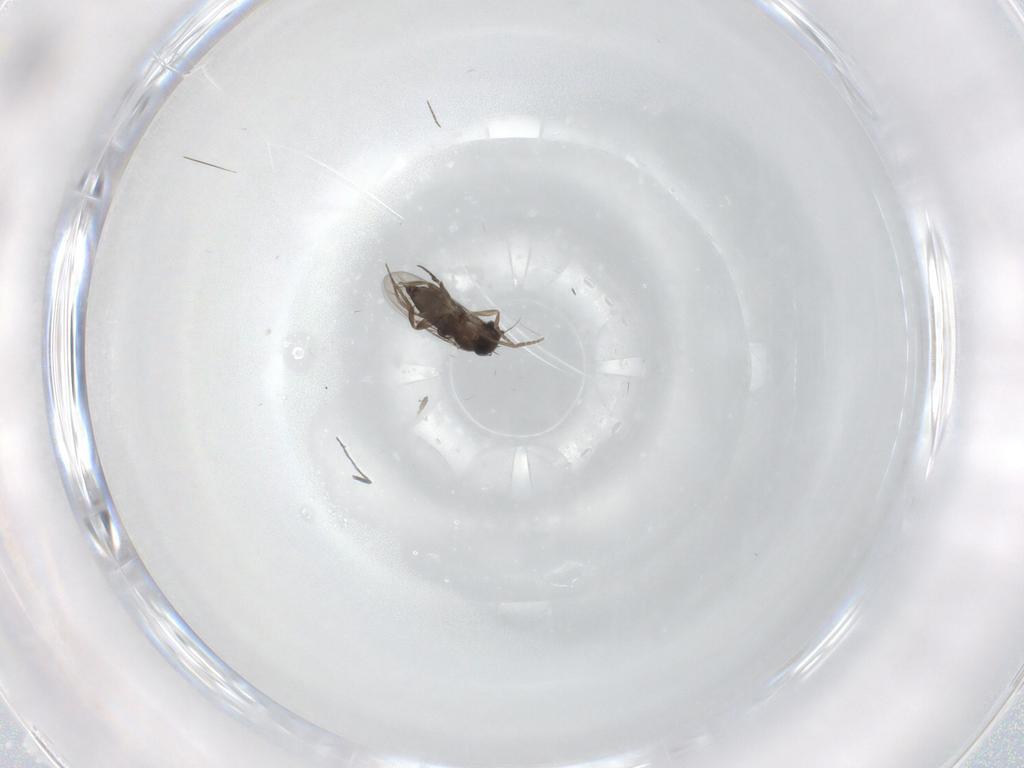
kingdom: Animalia
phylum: Arthropoda
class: Insecta
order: Diptera
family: Phoridae
